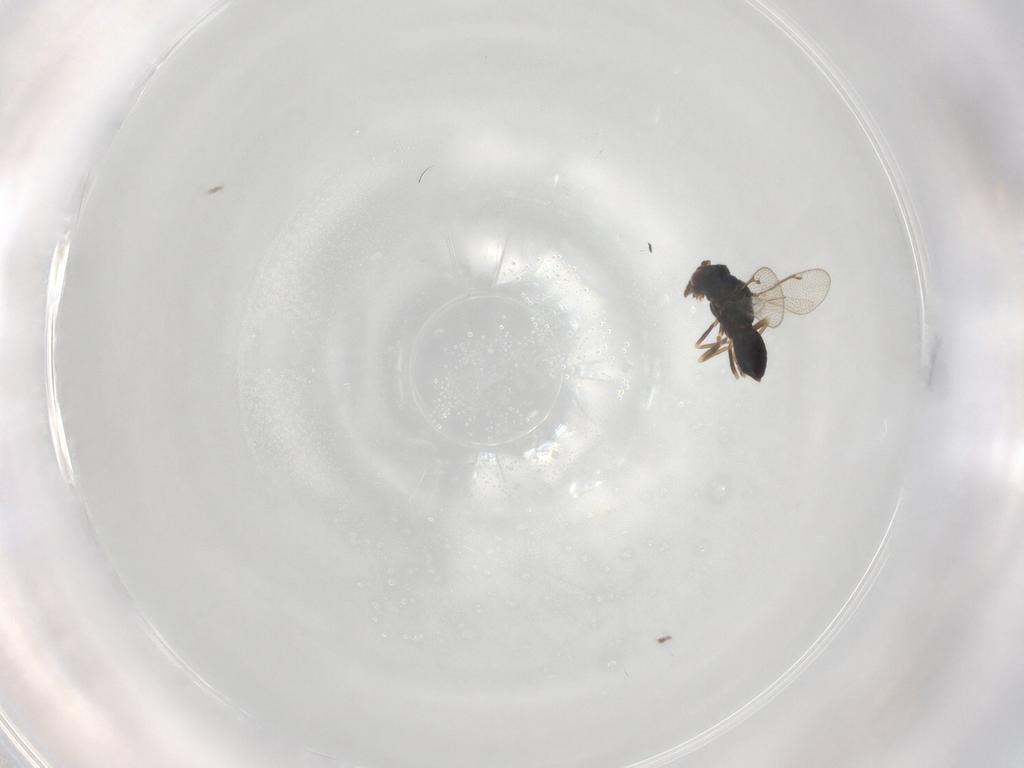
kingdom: Animalia
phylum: Arthropoda
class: Insecta
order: Hymenoptera
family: Eulophidae
